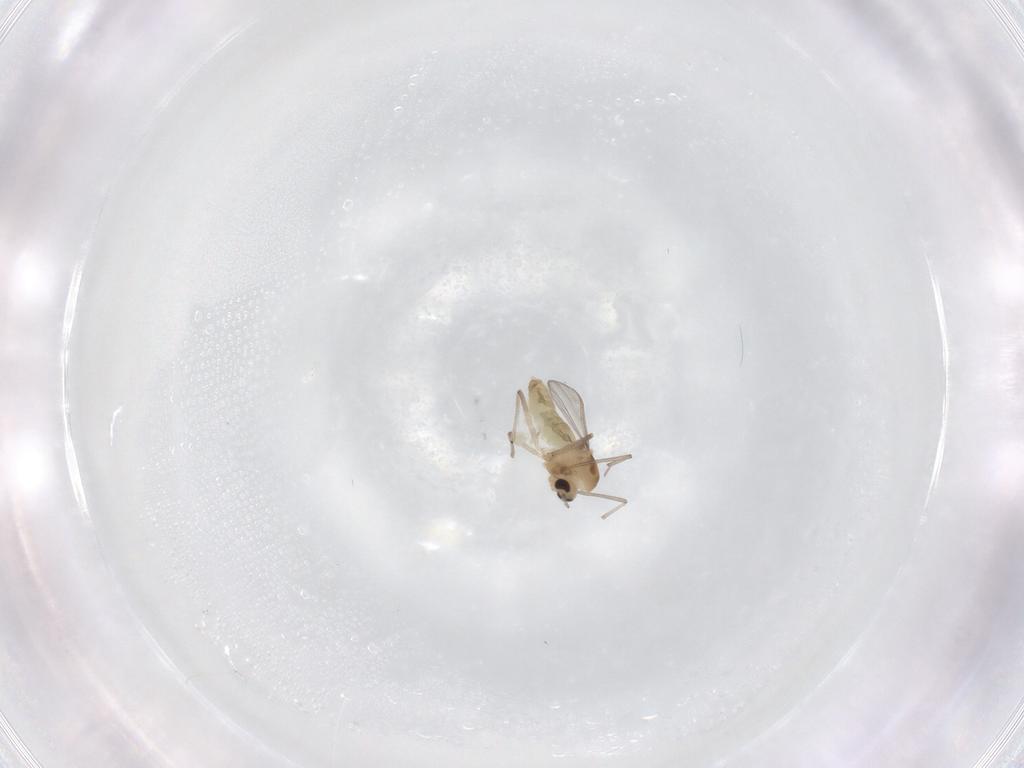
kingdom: Animalia
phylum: Arthropoda
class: Insecta
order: Diptera
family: Chironomidae
